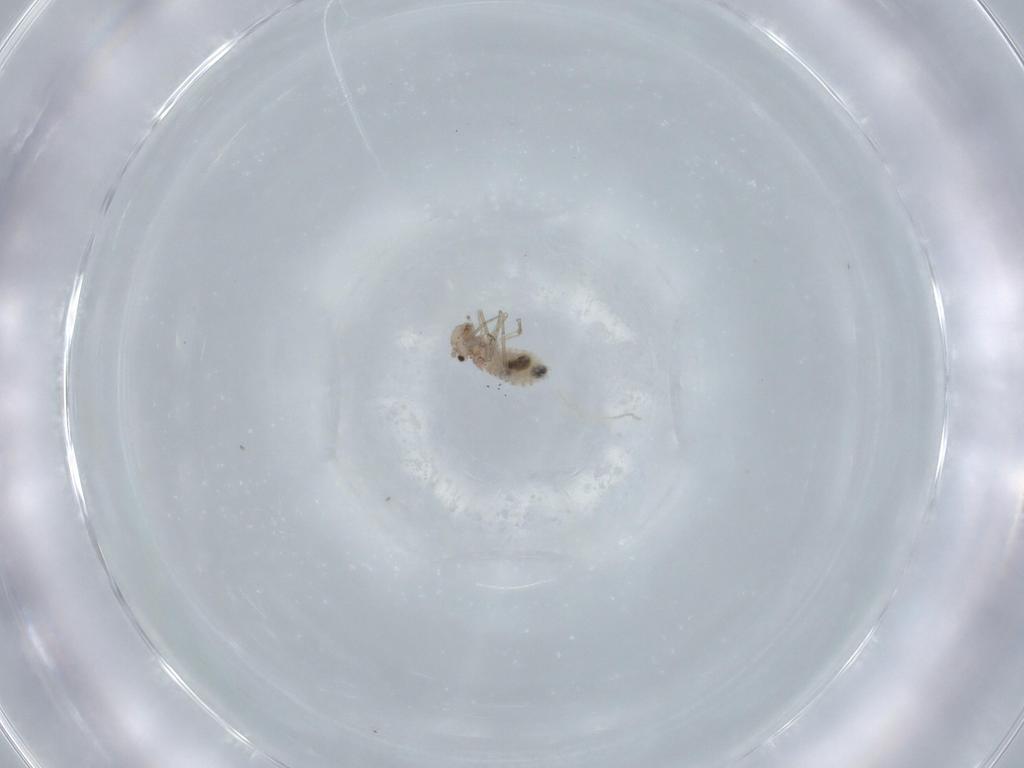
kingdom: Animalia
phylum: Arthropoda
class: Insecta
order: Psocodea
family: Lachesillidae
